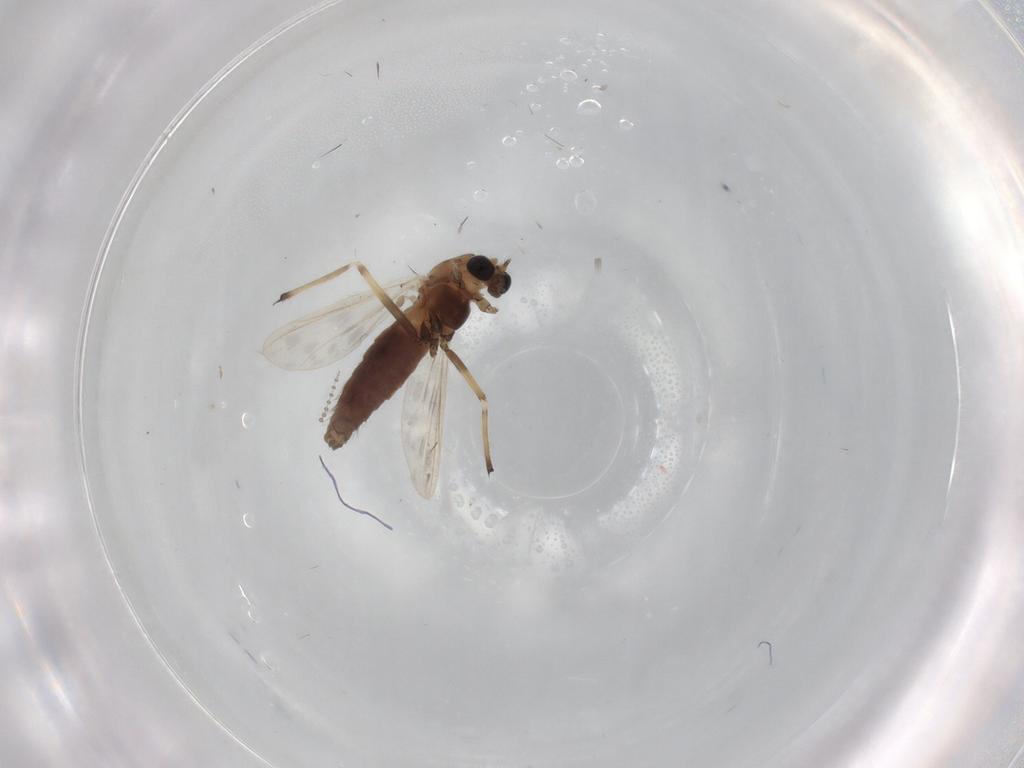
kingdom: Animalia
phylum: Arthropoda
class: Insecta
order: Diptera
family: Chironomidae
